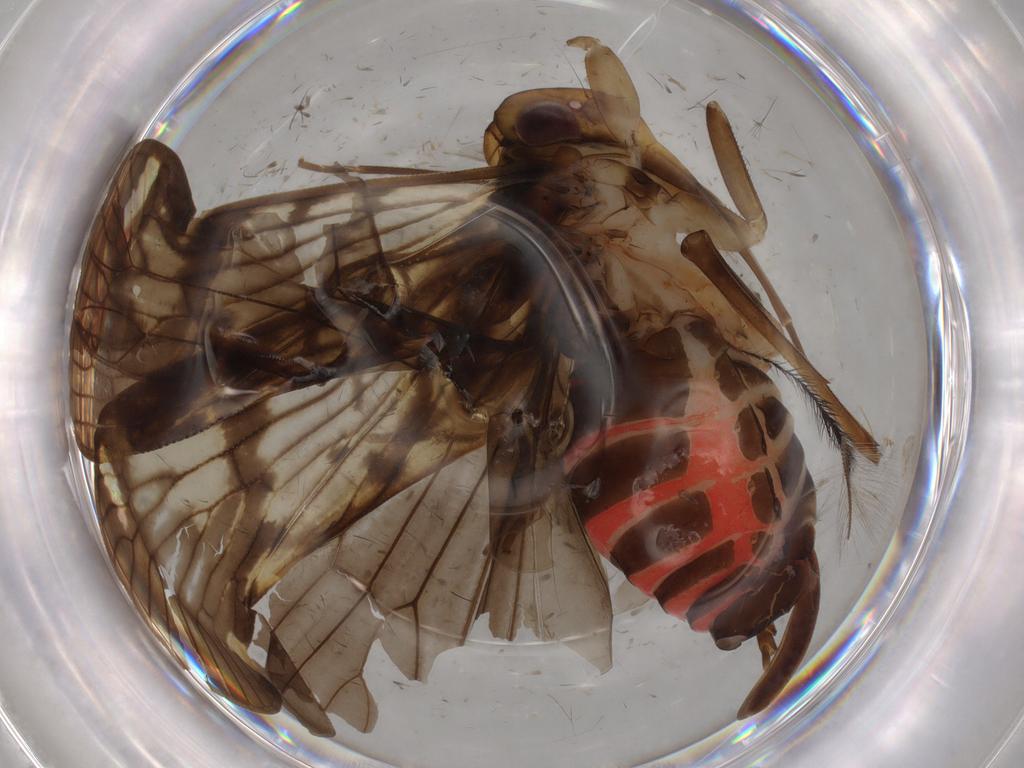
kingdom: Animalia
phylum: Arthropoda
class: Insecta
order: Hemiptera
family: Cixiidae
